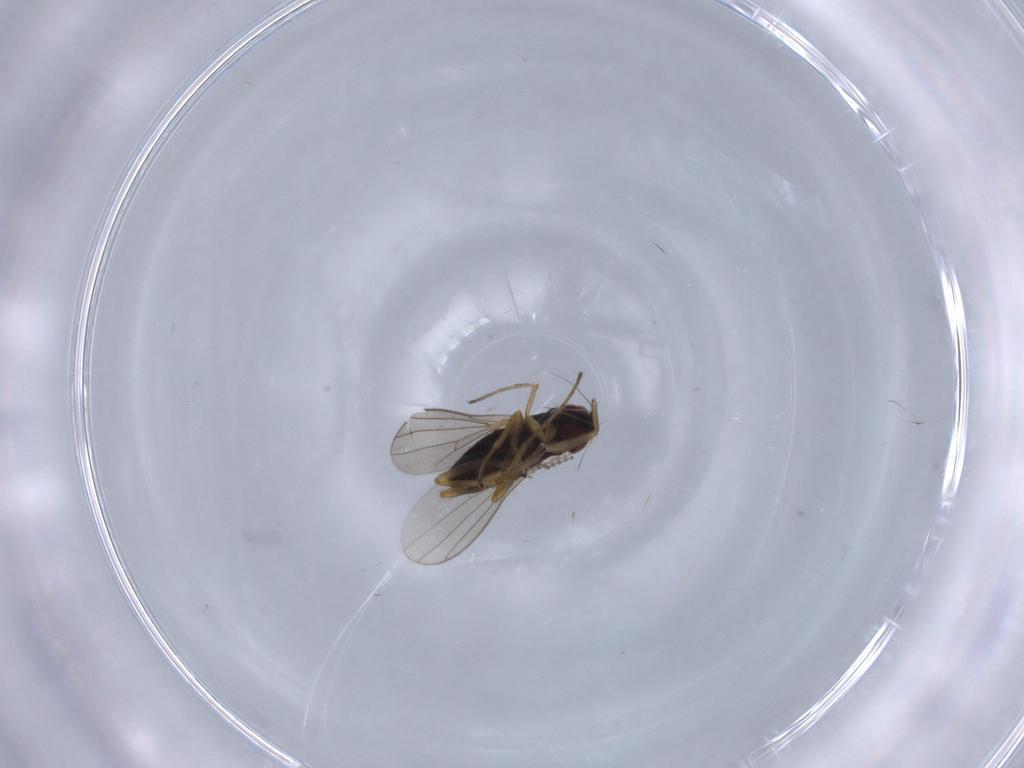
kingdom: Animalia
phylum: Arthropoda
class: Insecta
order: Diptera
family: Dolichopodidae
